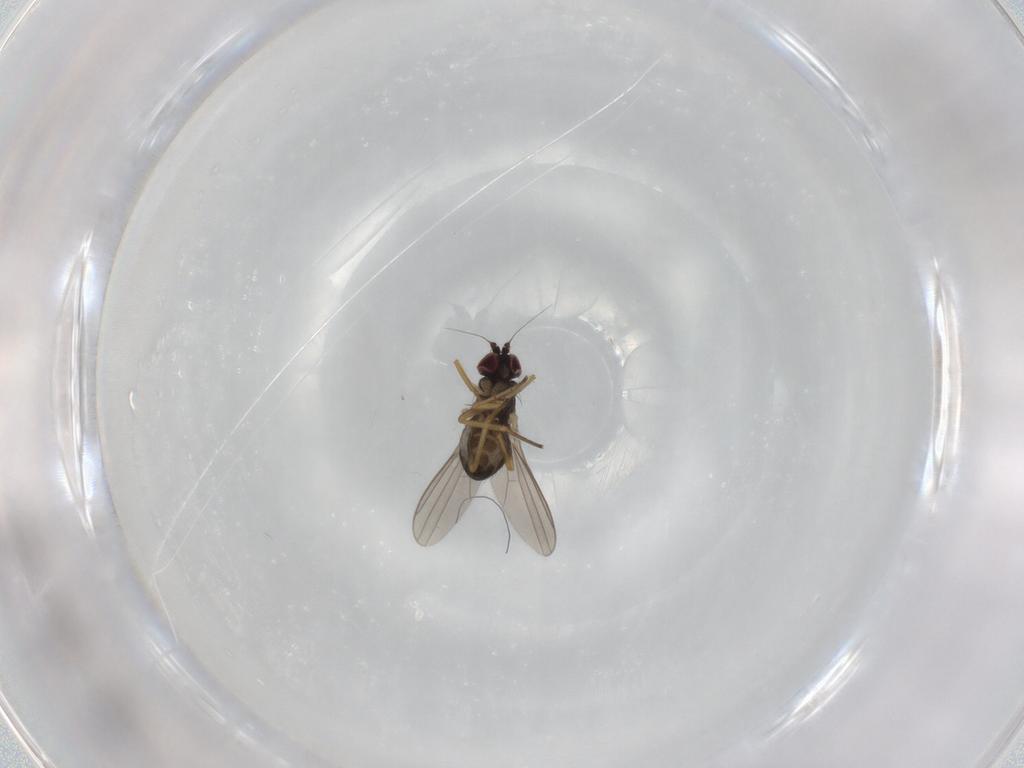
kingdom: Animalia
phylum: Arthropoda
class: Insecta
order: Diptera
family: Dolichopodidae
